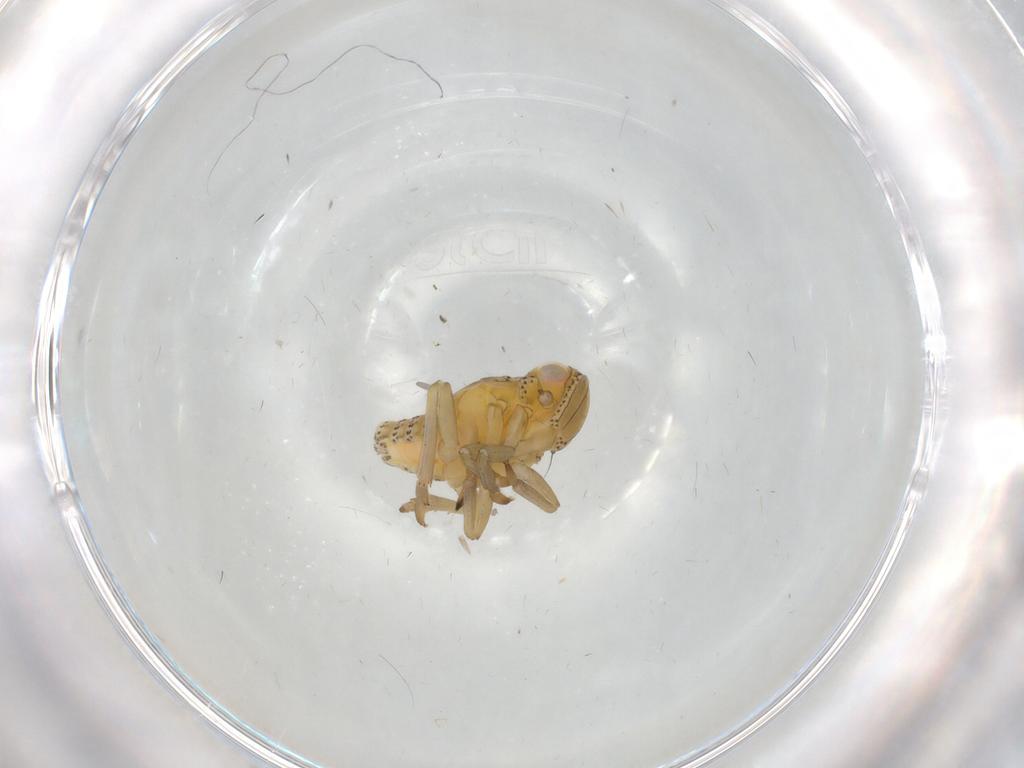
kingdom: Animalia
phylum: Arthropoda
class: Insecta
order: Hemiptera
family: Tropiduchidae
